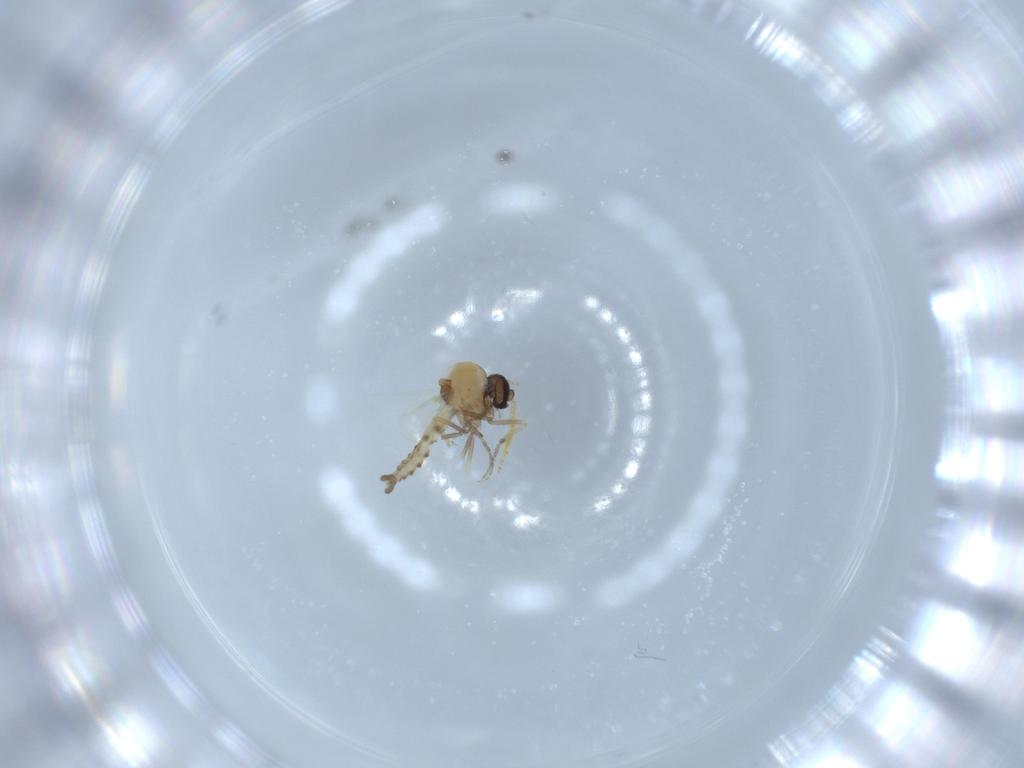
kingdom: Animalia
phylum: Arthropoda
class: Insecta
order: Diptera
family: Ceratopogonidae
